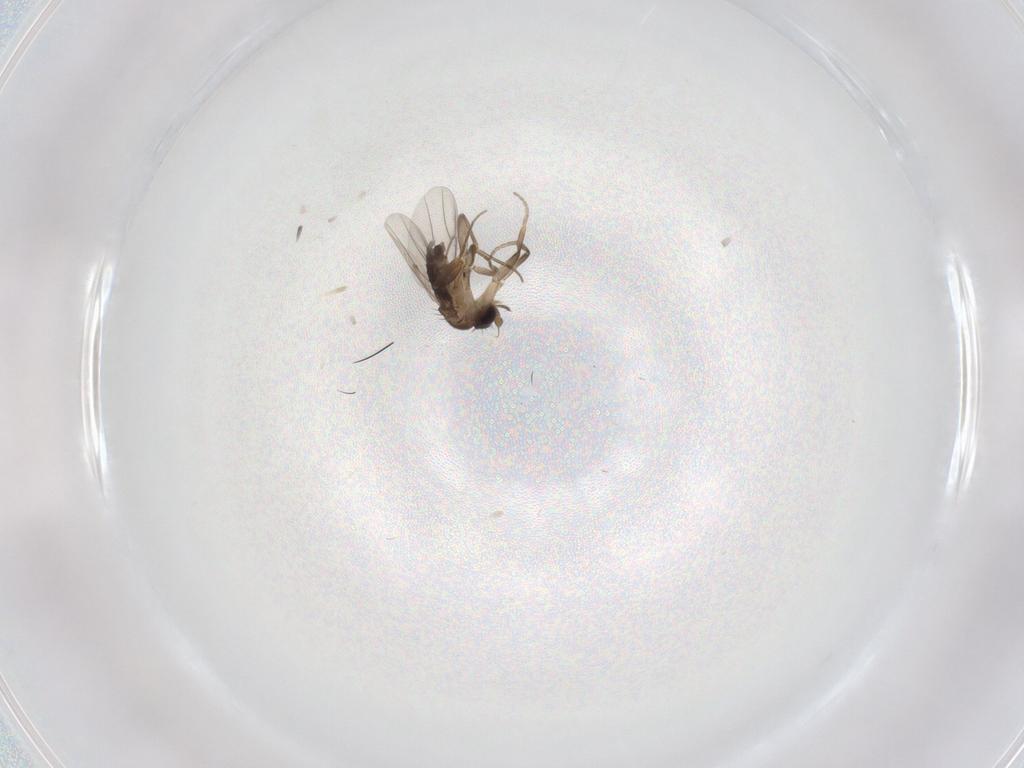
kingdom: Animalia
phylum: Arthropoda
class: Insecta
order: Diptera
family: Phoridae
